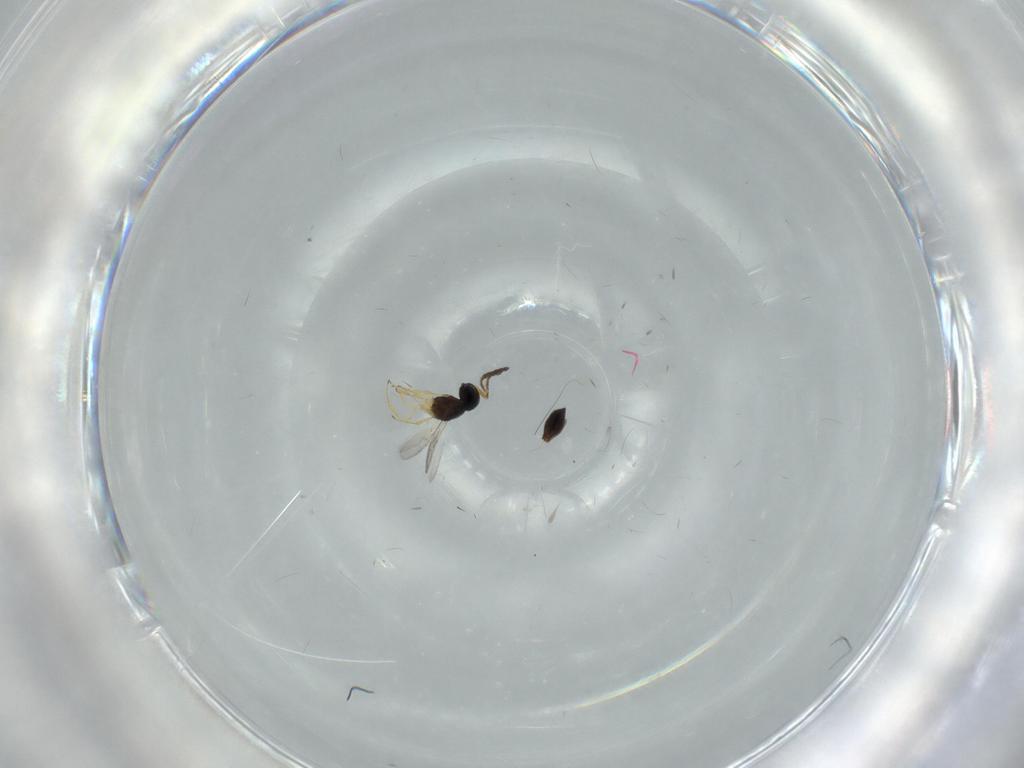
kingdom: Animalia
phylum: Arthropoda
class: Insecta
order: Hymenoptera
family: Scelionidae
